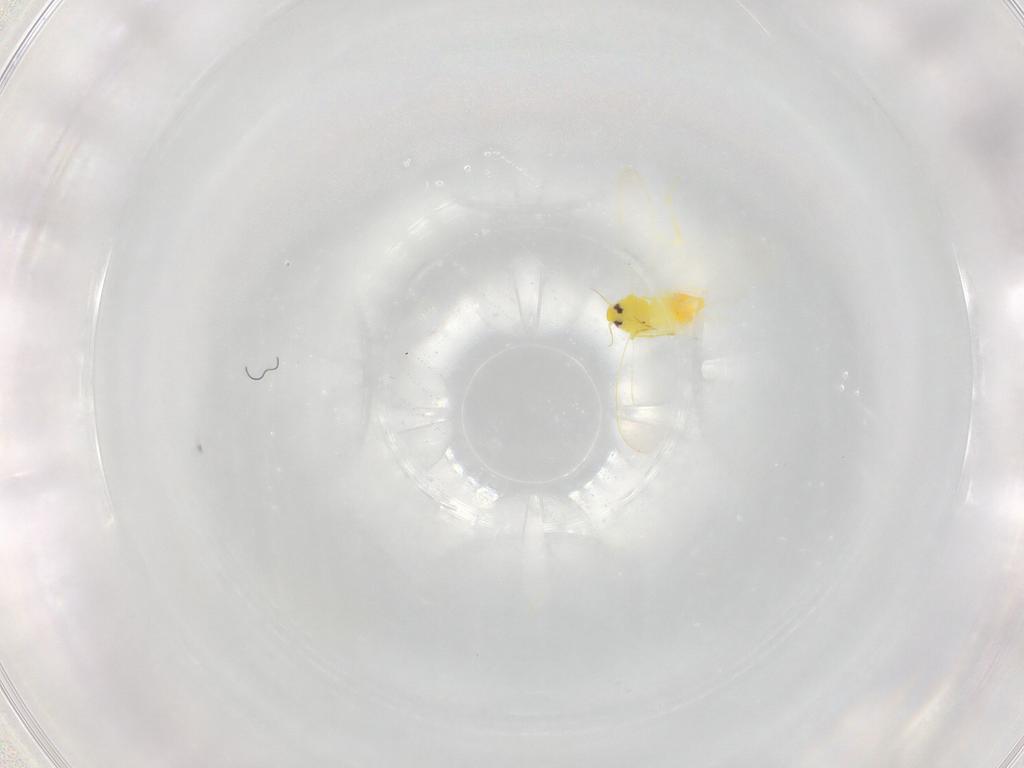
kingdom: Animalia
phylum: Arthropoda
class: Insecta
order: Hemiptera
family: Aleyrodidae
